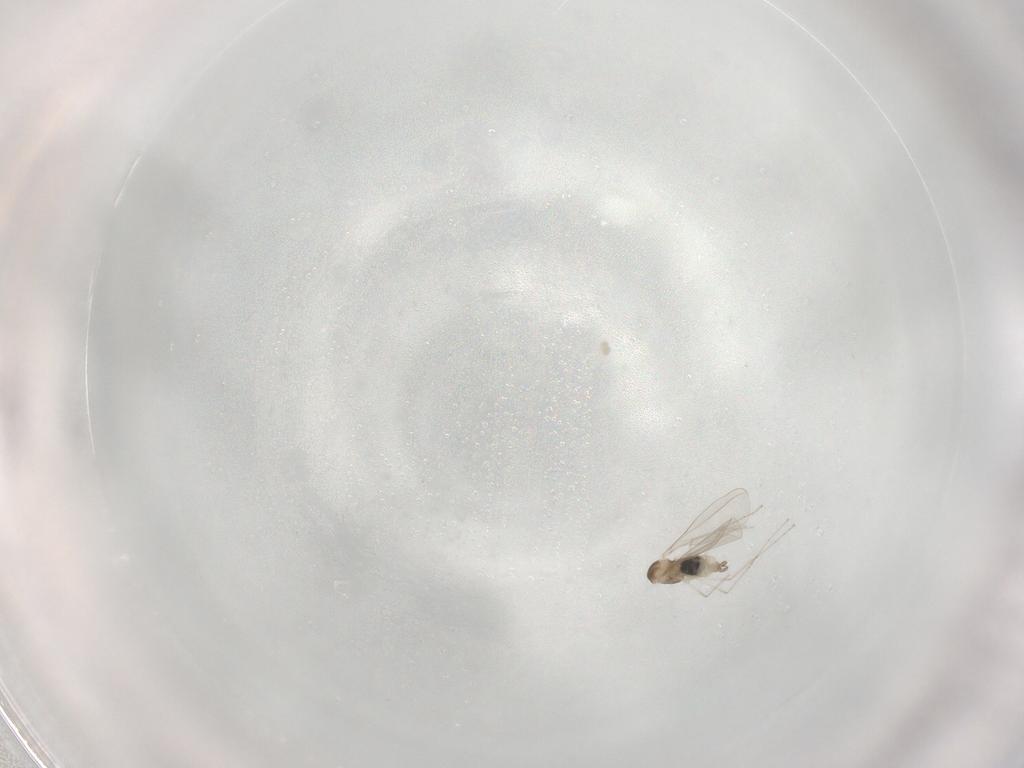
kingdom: Animalia
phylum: Arthropoda
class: Insecta
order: Diptera
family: Cecidomyiidae
